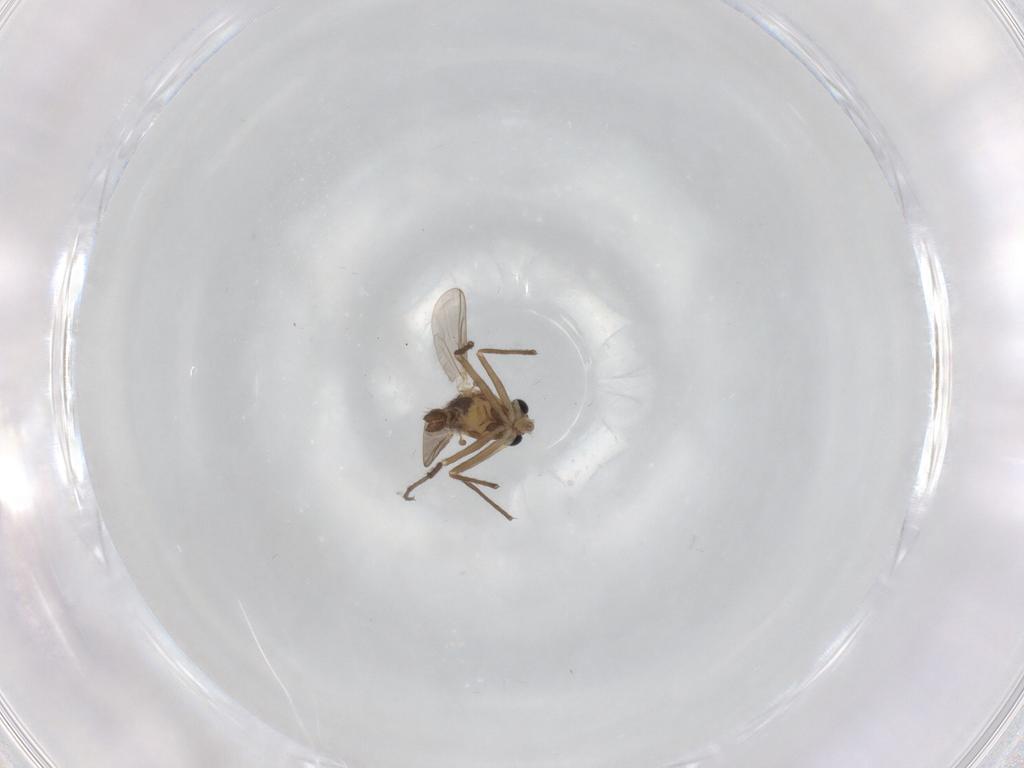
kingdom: Animalia
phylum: Arthropoda
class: Insecta
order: Diptera
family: Chironomidae
